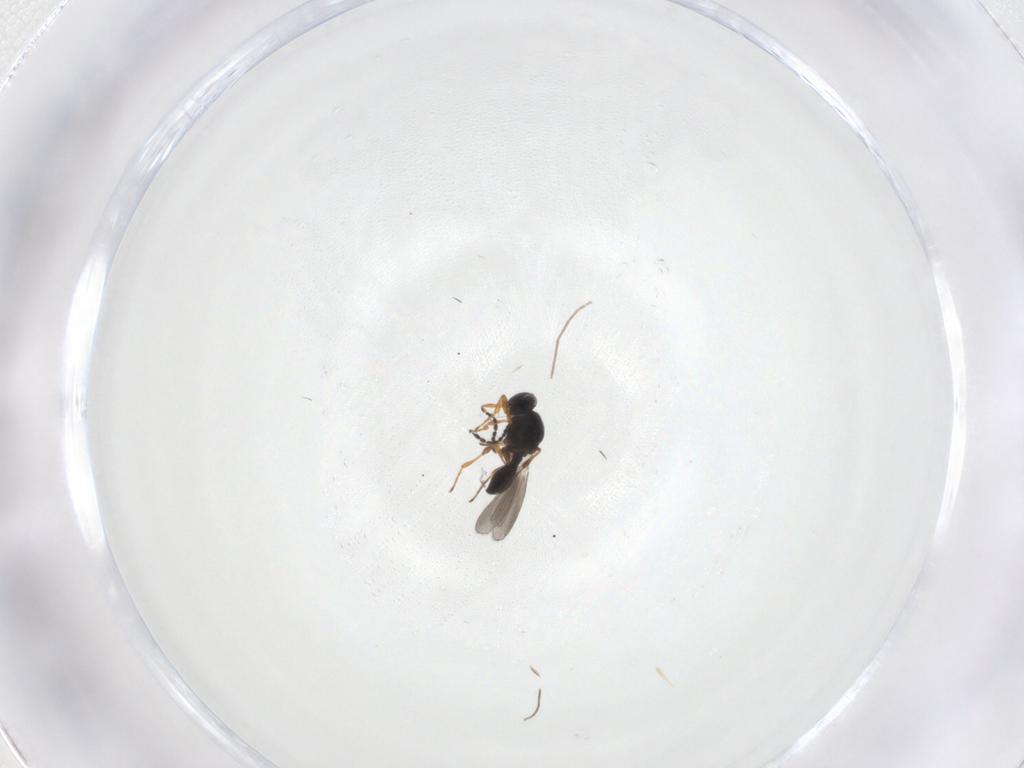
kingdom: Animalia
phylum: Arthropoda
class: Insecta
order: Hymenoptera
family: Platygastridae
